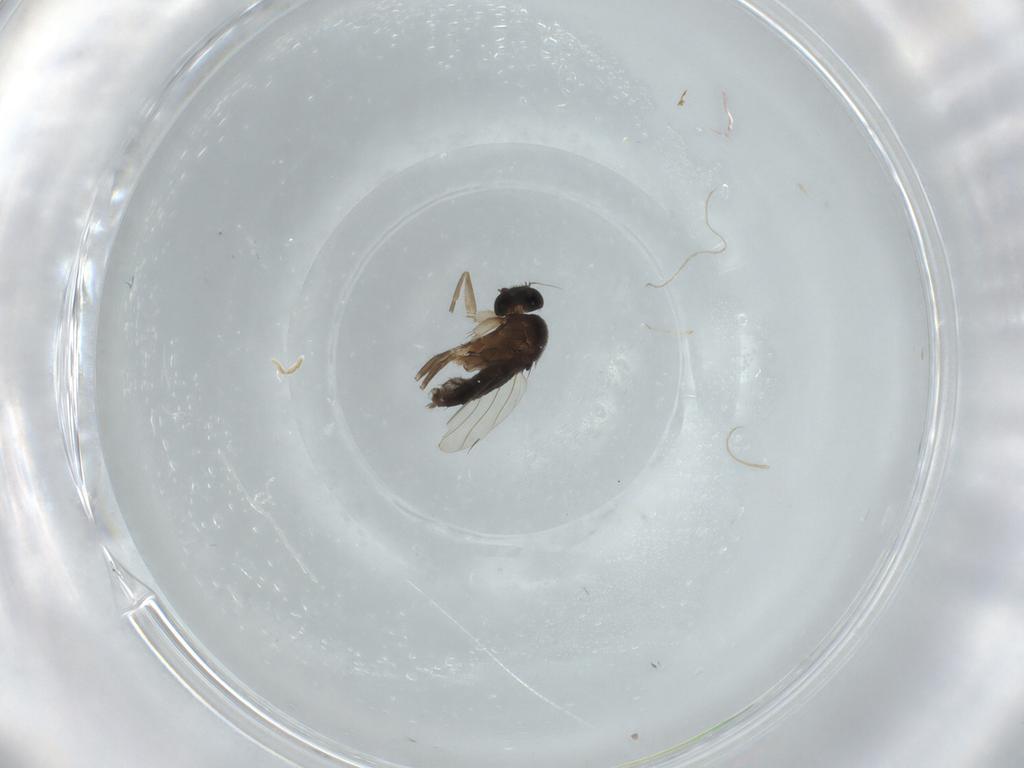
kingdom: Animalia
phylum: Arthropoda
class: Insecta
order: Diptera
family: Phoridae
